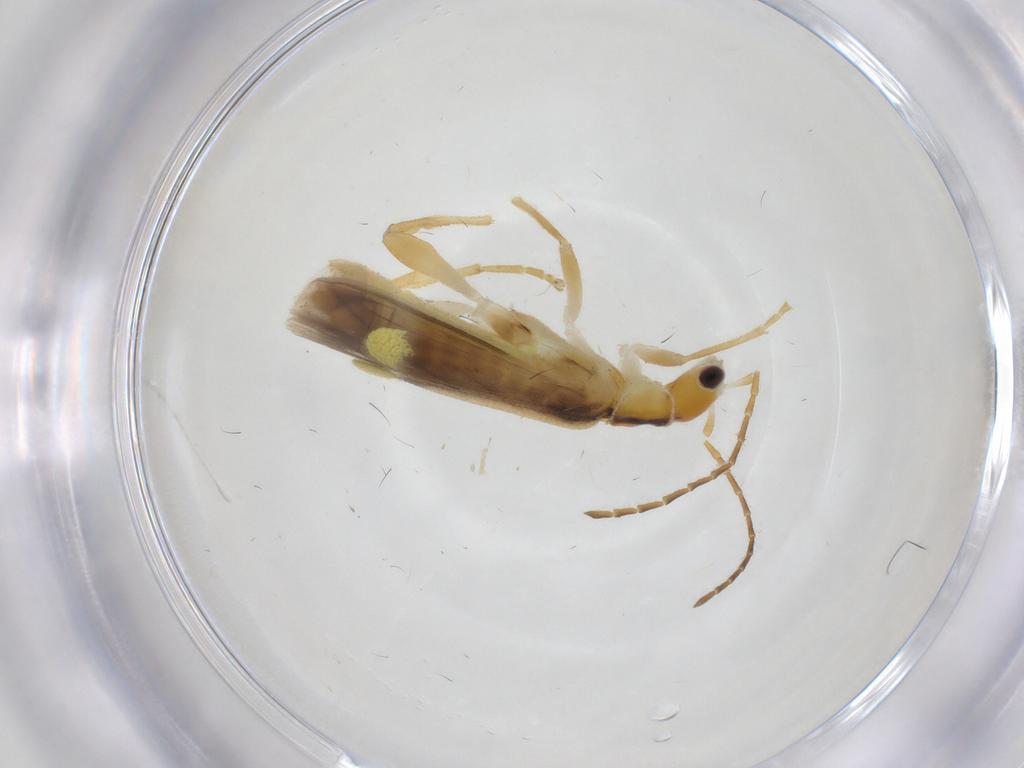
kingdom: Animalia
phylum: Arthropoda
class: Insecta
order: Coleoptera
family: Cantharidae
